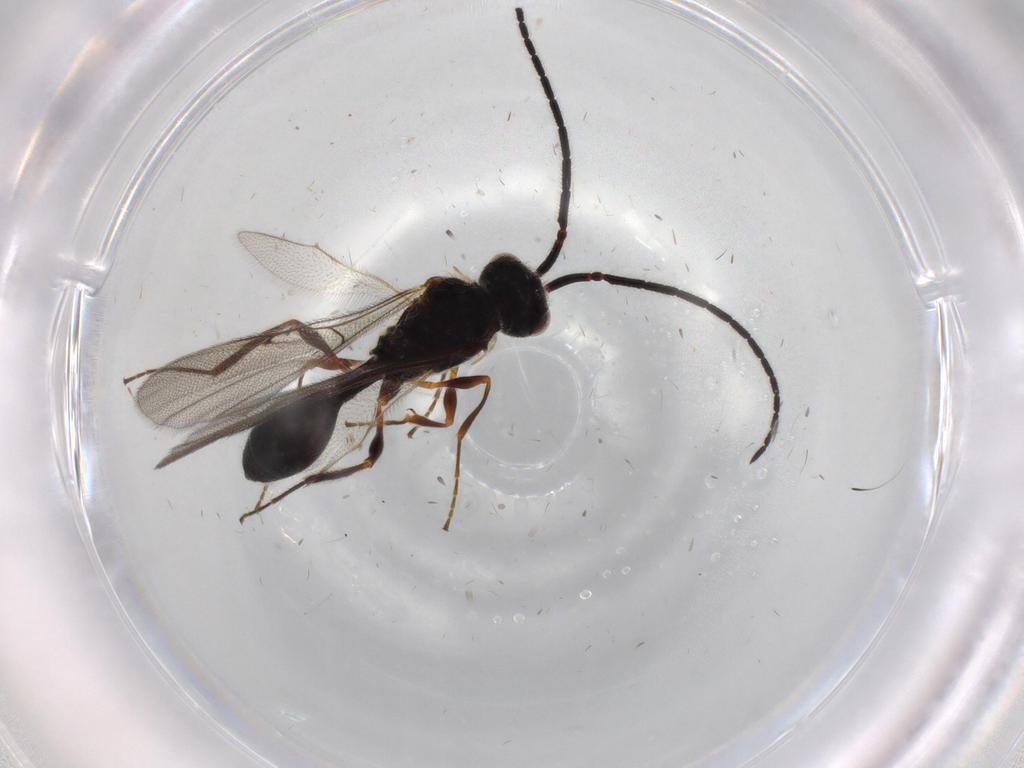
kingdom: Animalia
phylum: Arthropoda
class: Insecta
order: Hymenoptera
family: Diapriidae
